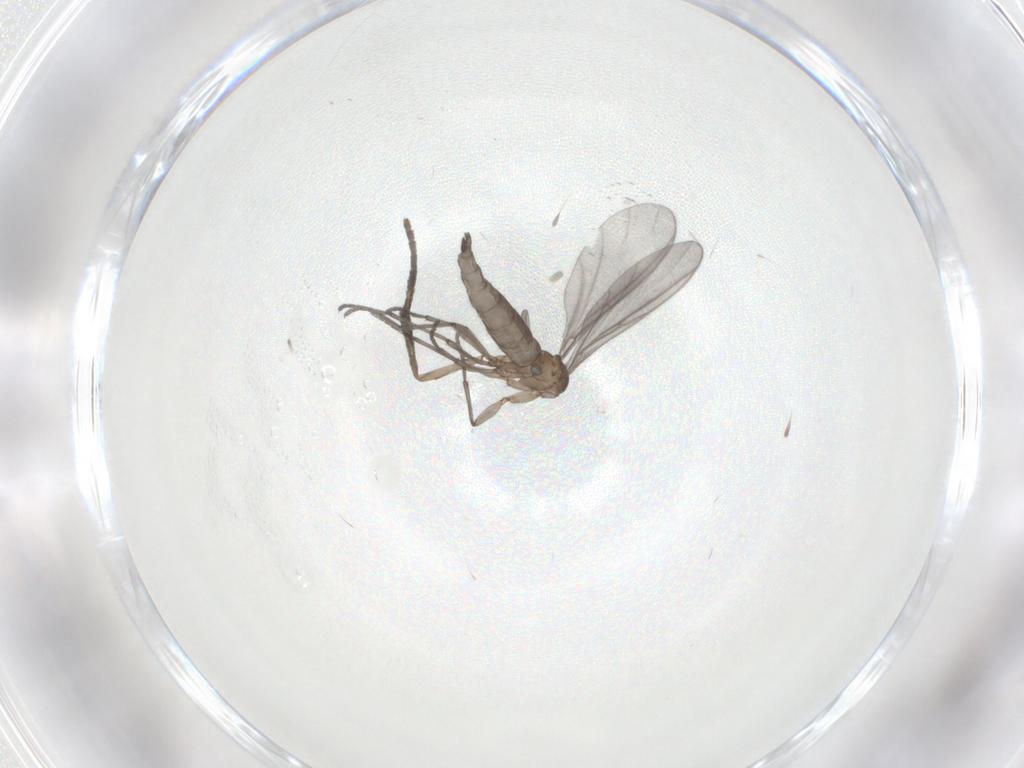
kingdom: Animalia
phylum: Arthropoda
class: Insecta
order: Diptera
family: Psychodidae
